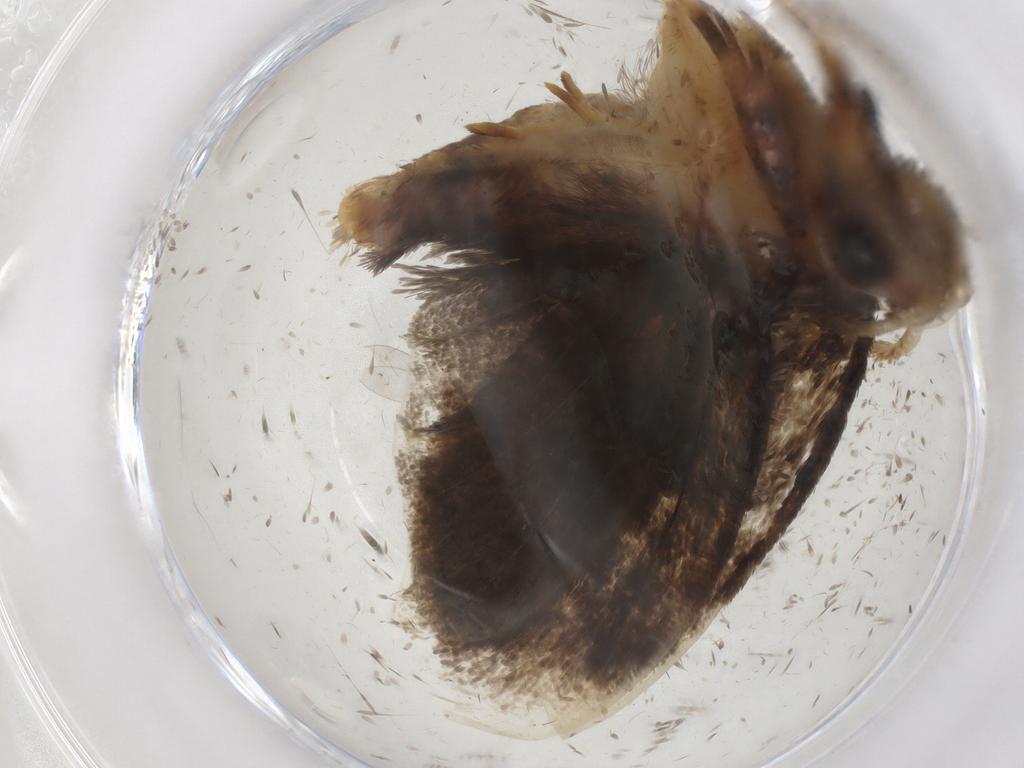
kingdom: Animalia
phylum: Arthropoda
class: Insecta
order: Lepidoptera
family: Tineidae
